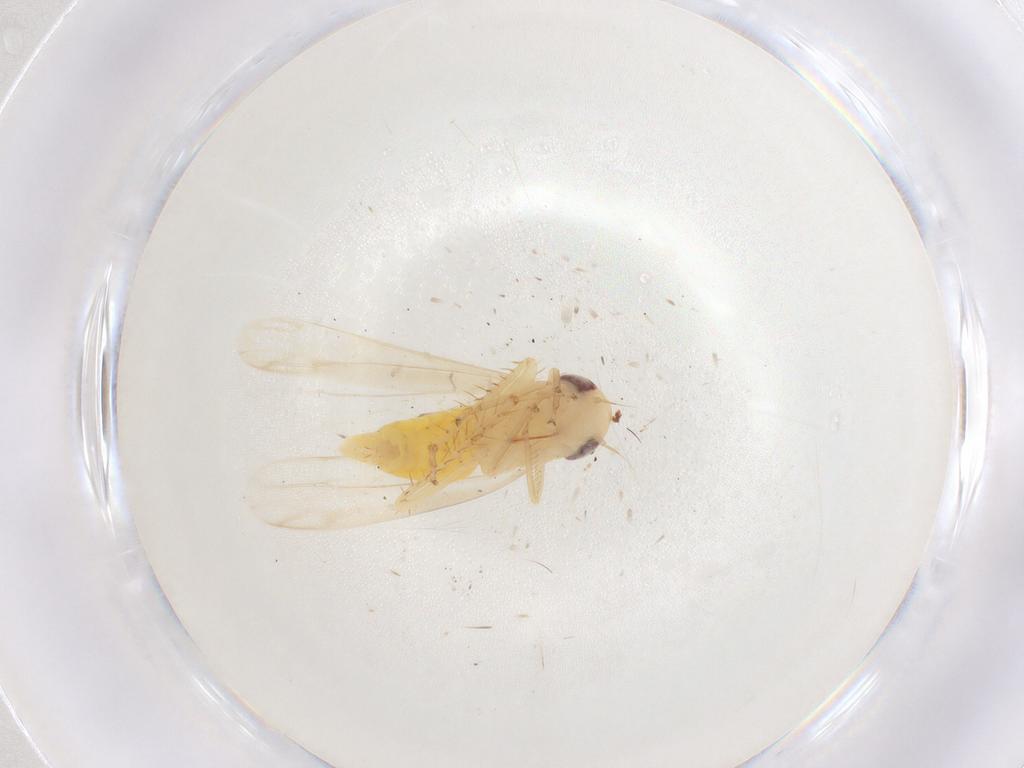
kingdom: Animalia
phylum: Arthropoda
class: Insecta
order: Hemiptera
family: Cicadellidae
